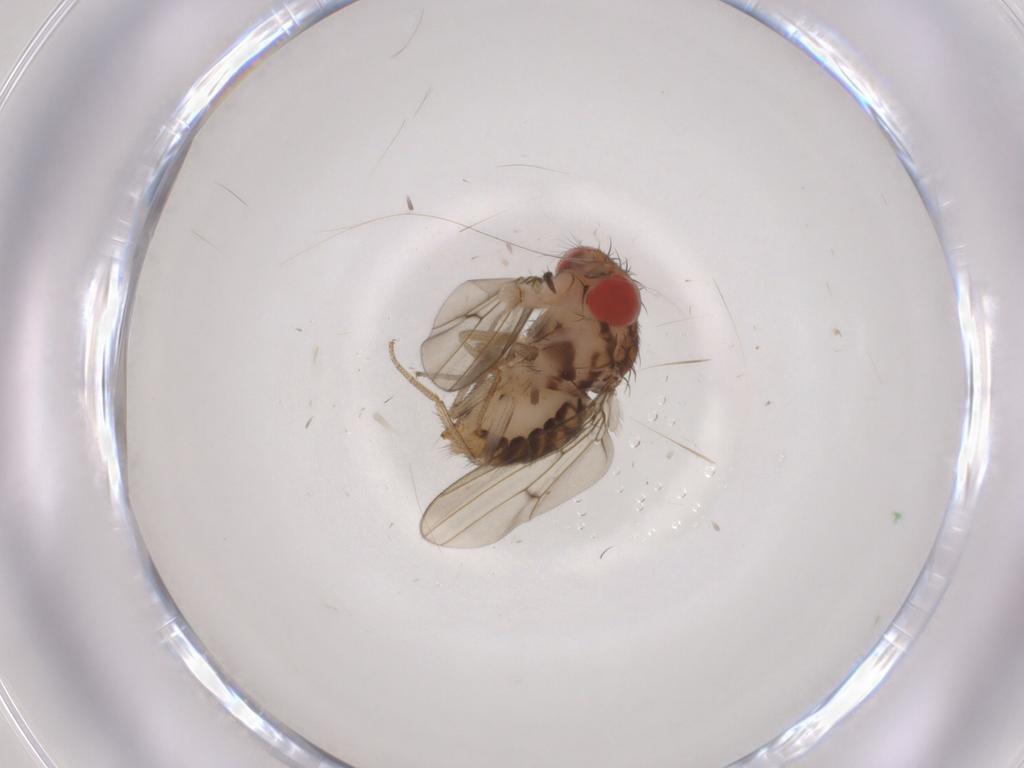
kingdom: Animalia
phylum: Arthropoda
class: Insecta
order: Diptera
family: Drosophilidae
